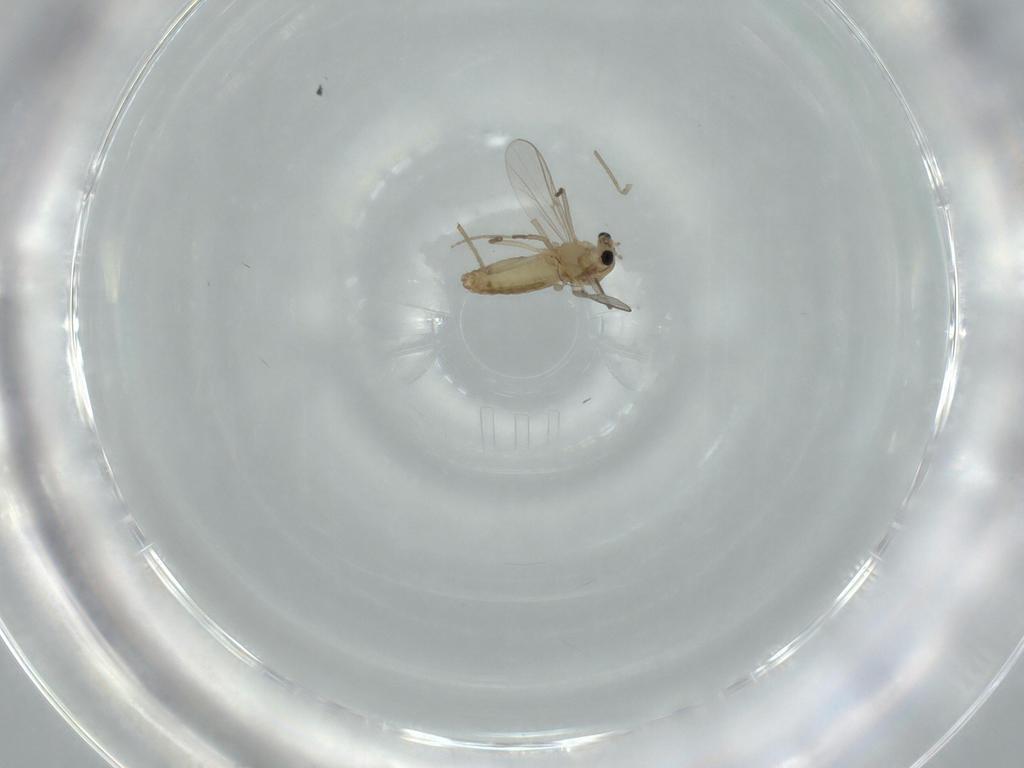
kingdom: Animalia
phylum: Arthropoda
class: Insecta
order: Diptera
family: Chironomidae
